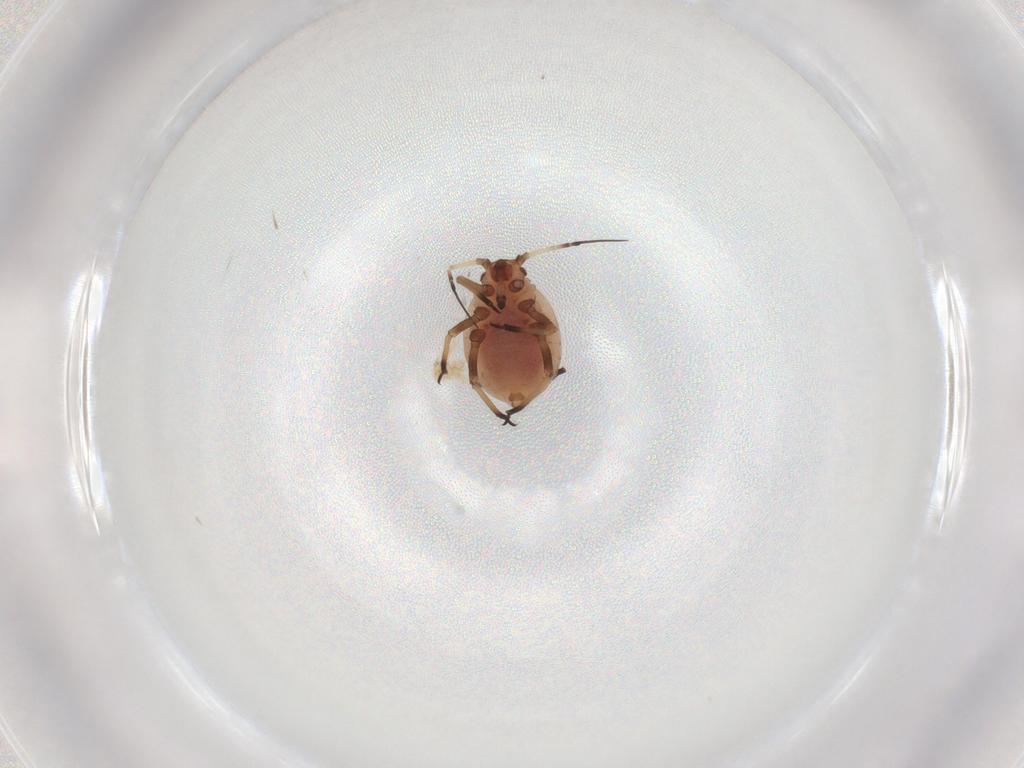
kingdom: Animalia
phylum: Arthropoda
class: Insecta
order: Hemiptera
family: Aphididae
